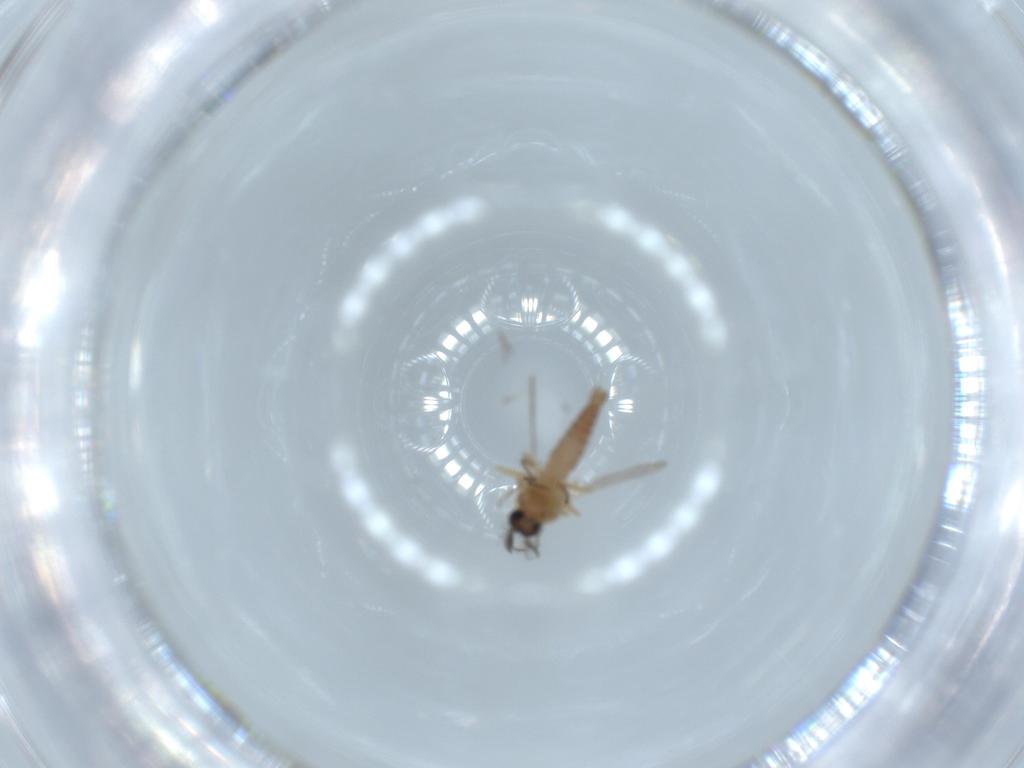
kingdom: Animalia
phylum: Arthropoda
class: Insecta
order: Diptera
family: Ceratopogonidae
